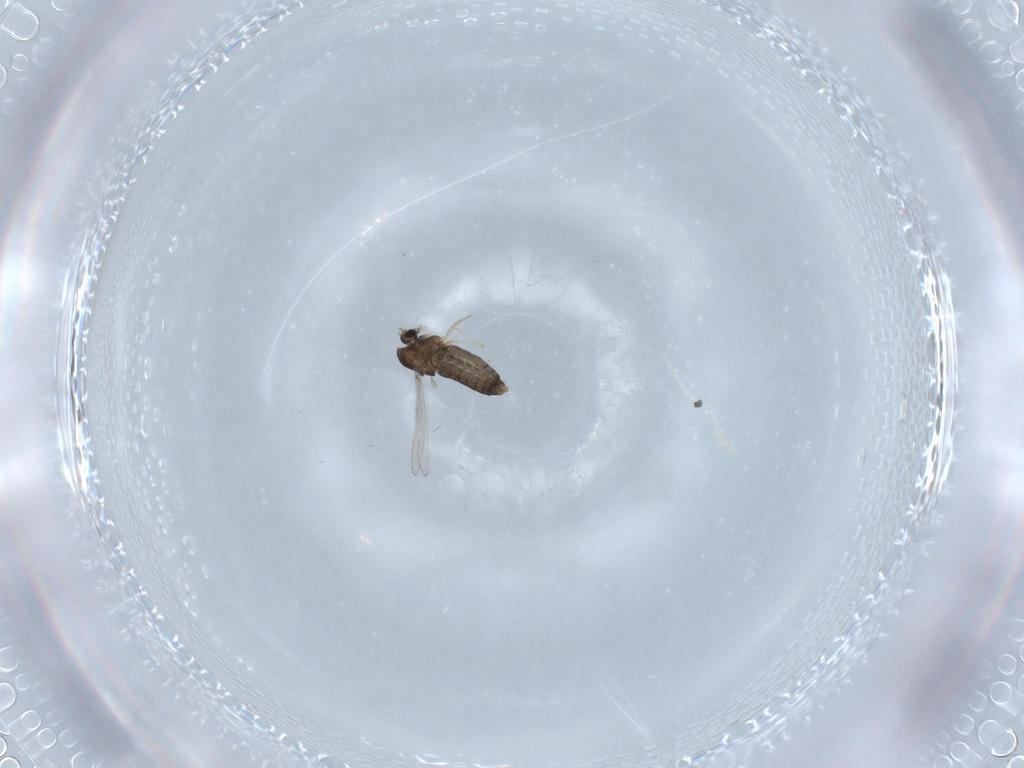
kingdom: Animalia
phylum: Arthropoda
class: Insecta
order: Diptera
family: Chironomidae
